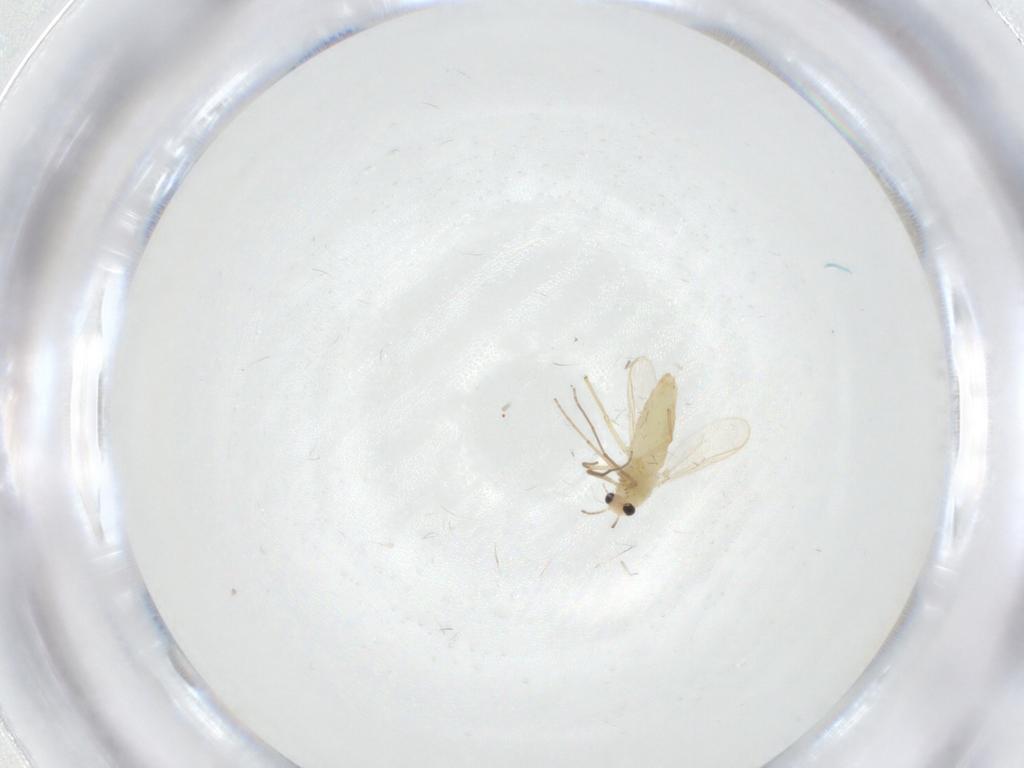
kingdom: Animalia
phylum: Arthropoda
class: Insecta
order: Diptera
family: Chironomidae
